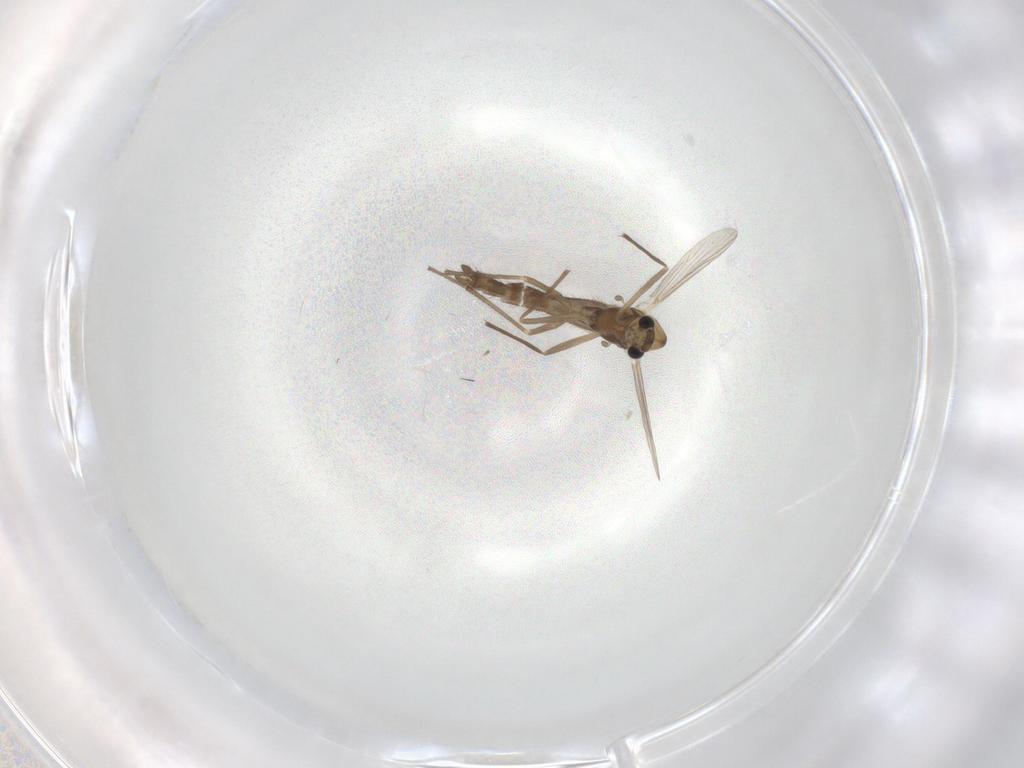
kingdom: Animalia
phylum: Arthropoda
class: Insecta
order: Diptera
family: Chironomidae
